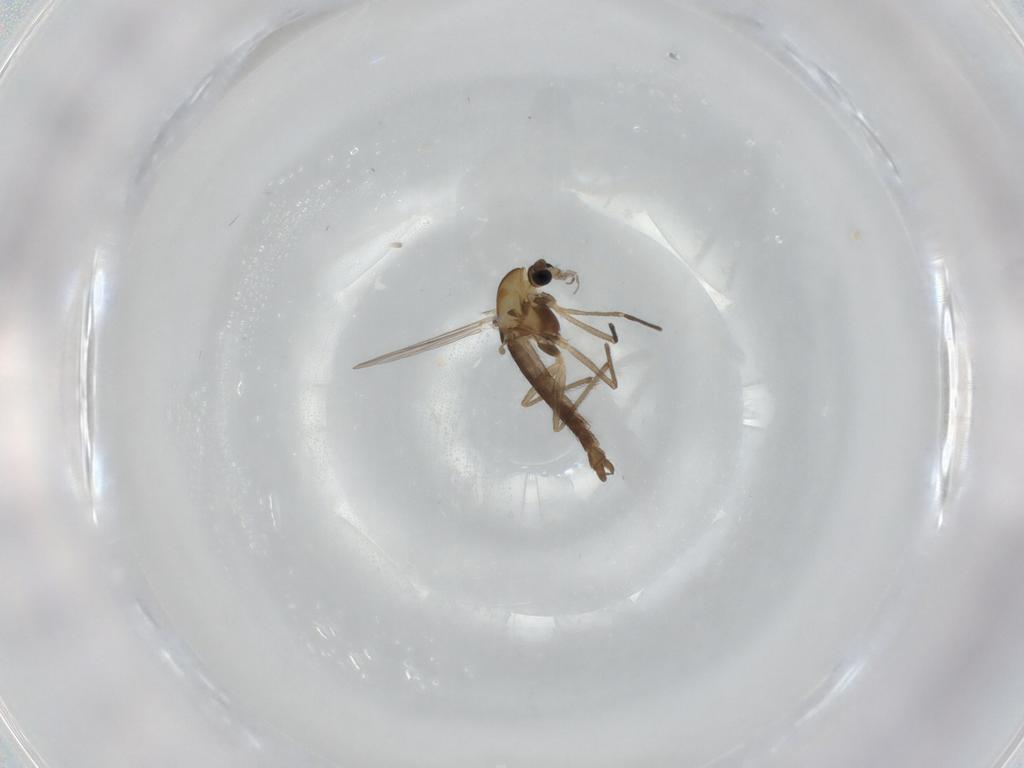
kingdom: Animalia
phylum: Arthropoda
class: Insecta
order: Diptera
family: Chironomidae
